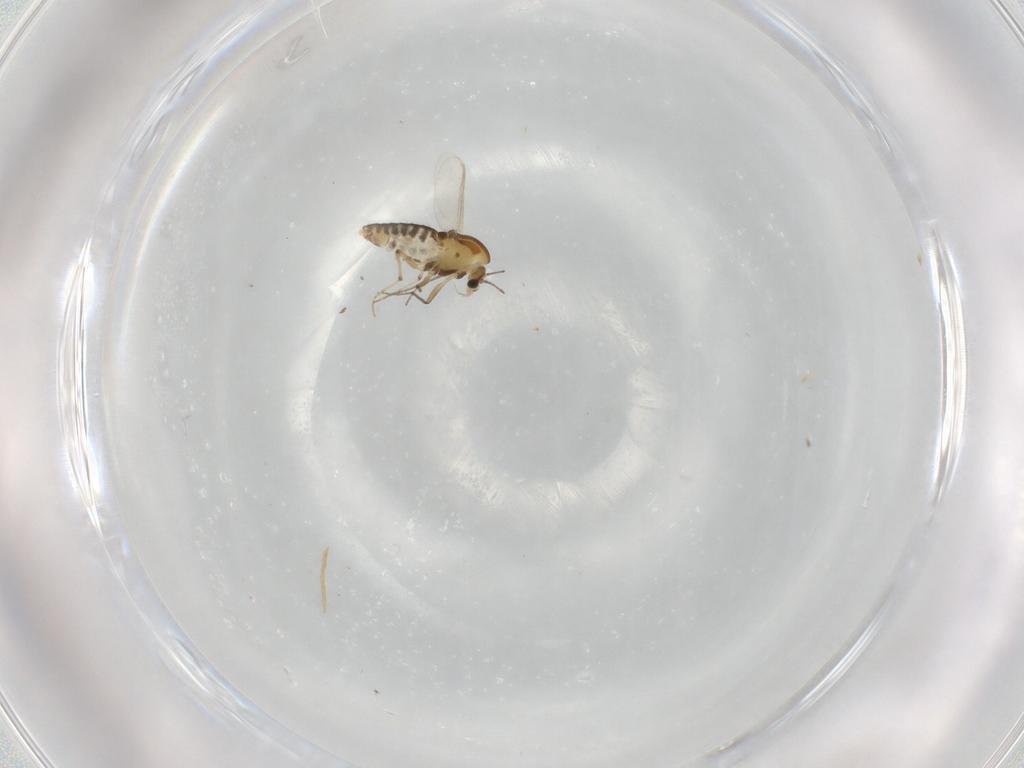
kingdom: Animalia
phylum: Arthropoda
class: Insecta
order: Diptera
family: Chironomidae
